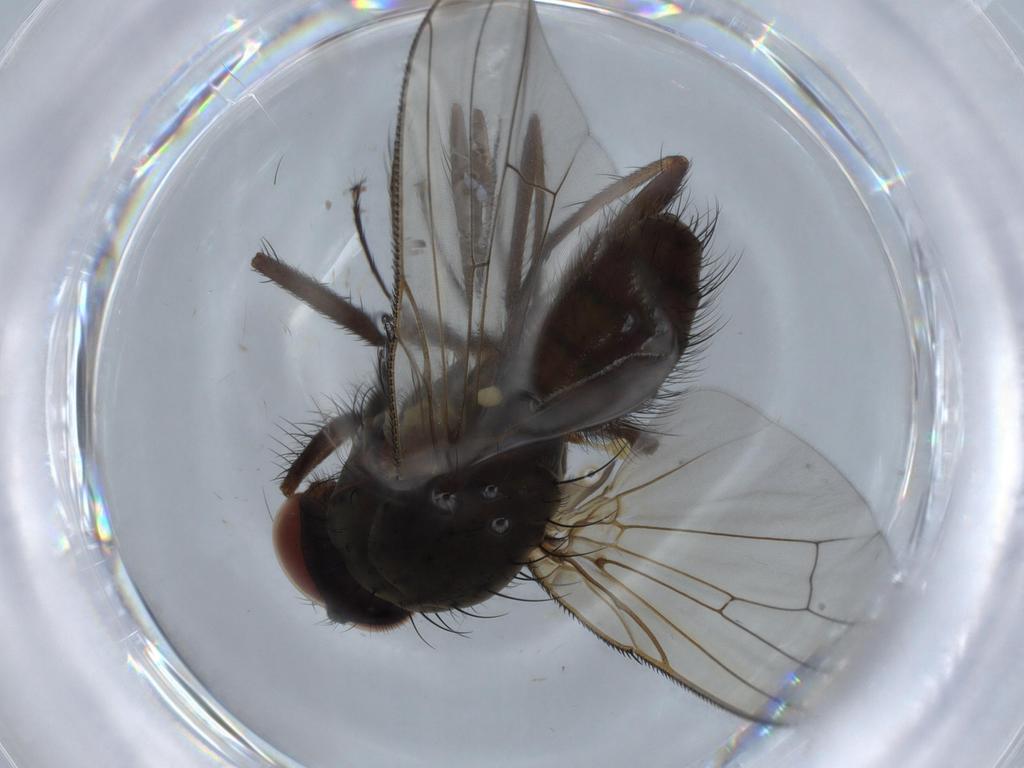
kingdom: Animalia
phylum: Arthropoda
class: Insecta
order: Diptera
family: Anthomyiidae
